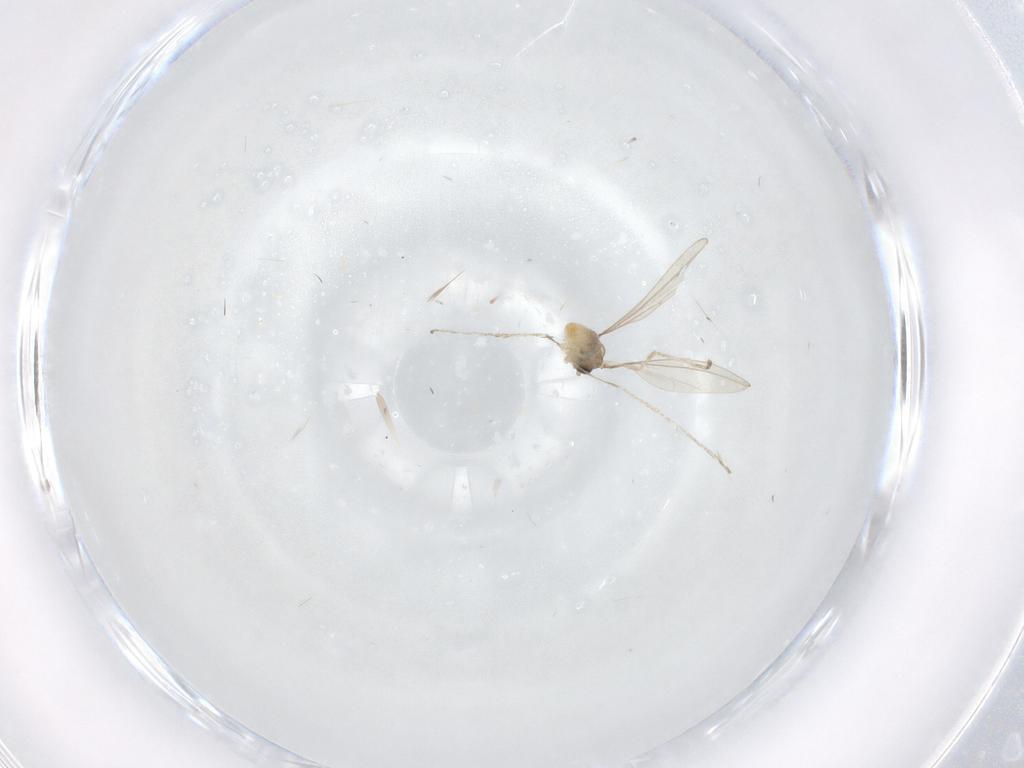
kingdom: Animalia
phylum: Arthropoda
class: Insecta
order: Diptera
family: Cecidomyiidae
